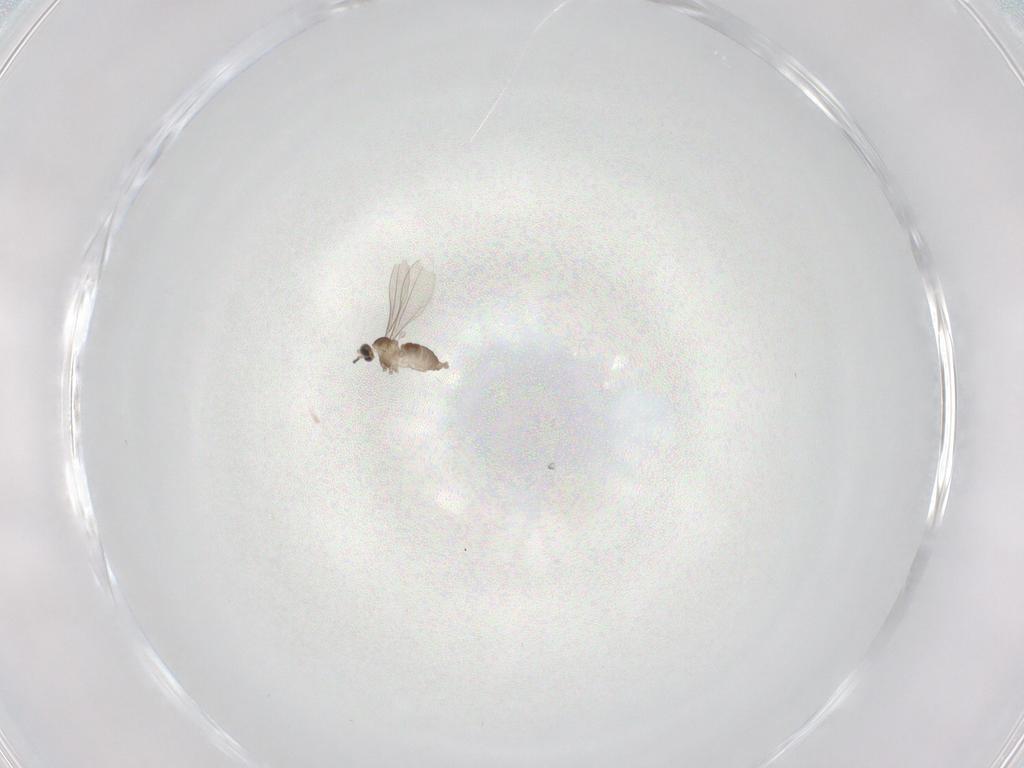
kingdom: Animalia
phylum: Arthropoda
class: Insecta
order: Diptera
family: Cecidomyiidae
